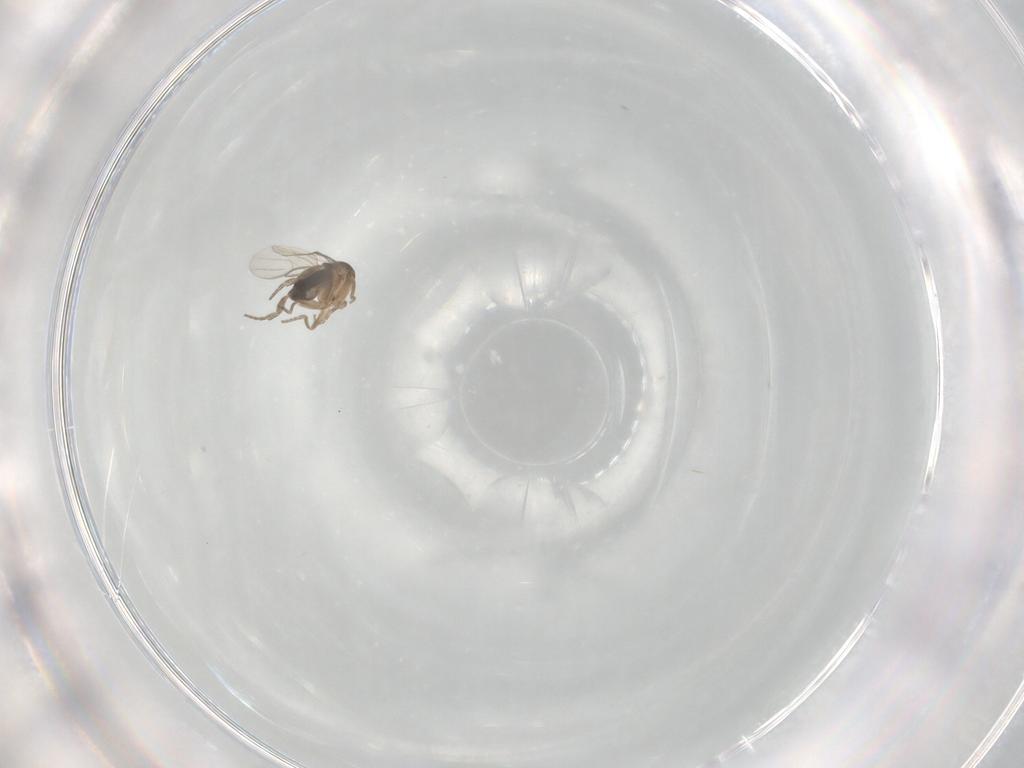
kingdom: Animalia
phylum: Arthropoda
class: Insecta
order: Diptera
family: Phoridae
